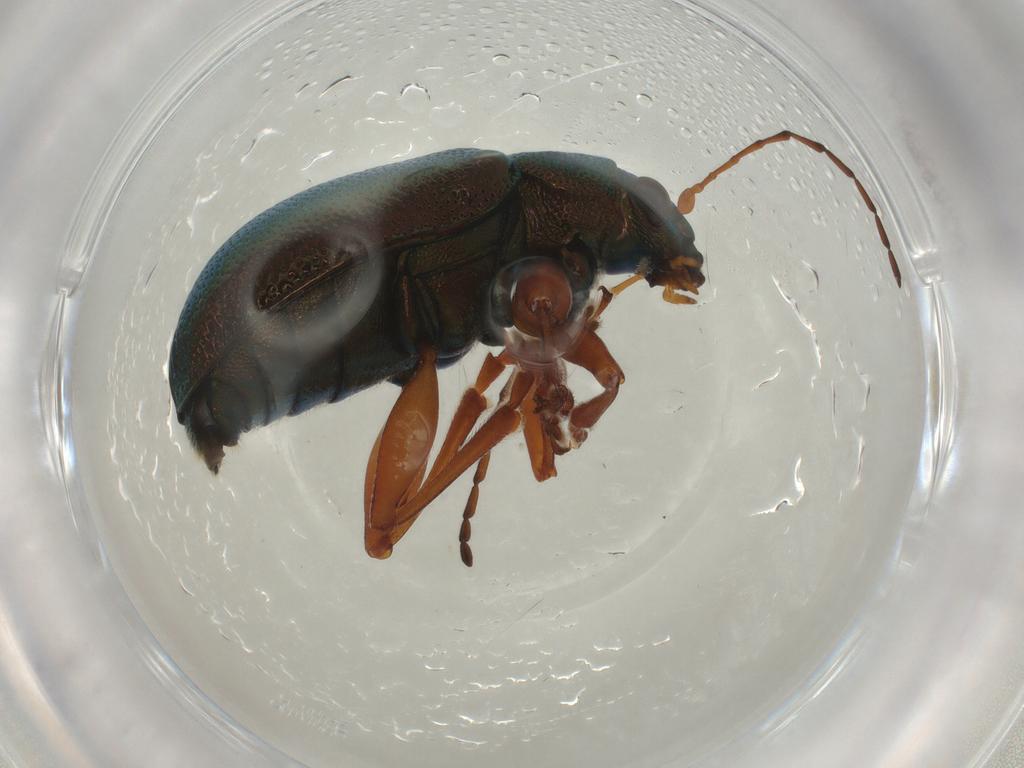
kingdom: Animalia
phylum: Arthropoda
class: Insecta
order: Coleoptera
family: Chrysomelidae
